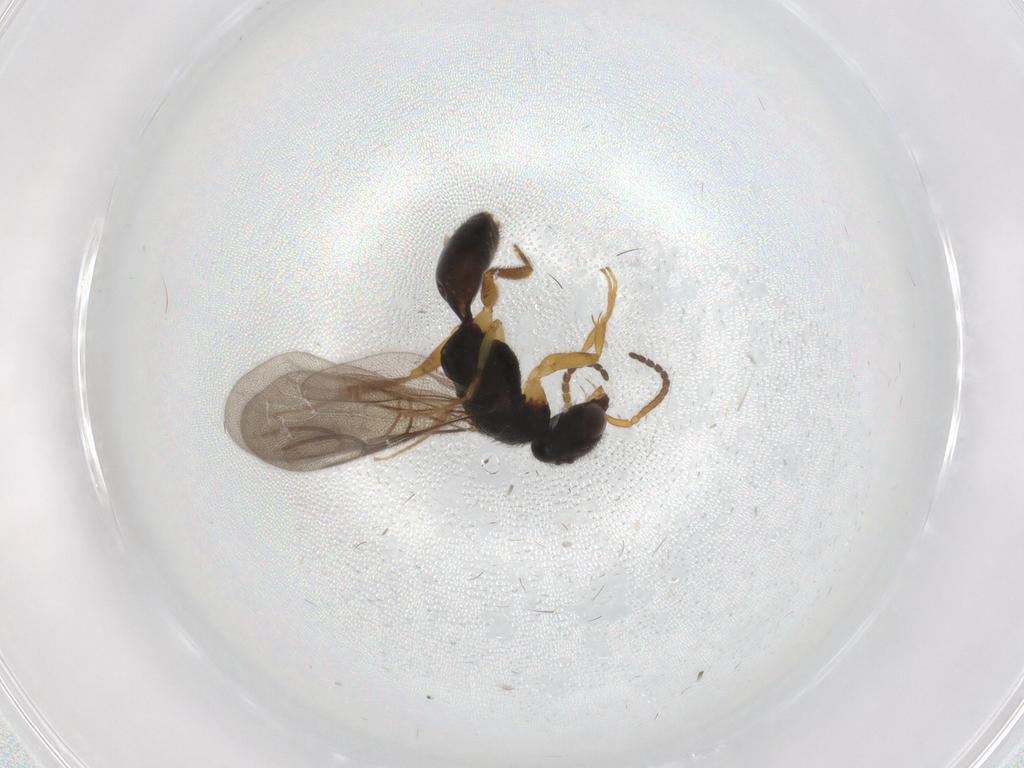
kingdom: Animalia
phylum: Arthropoda
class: Insecta
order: Hymenoptera
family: Bethylidae
